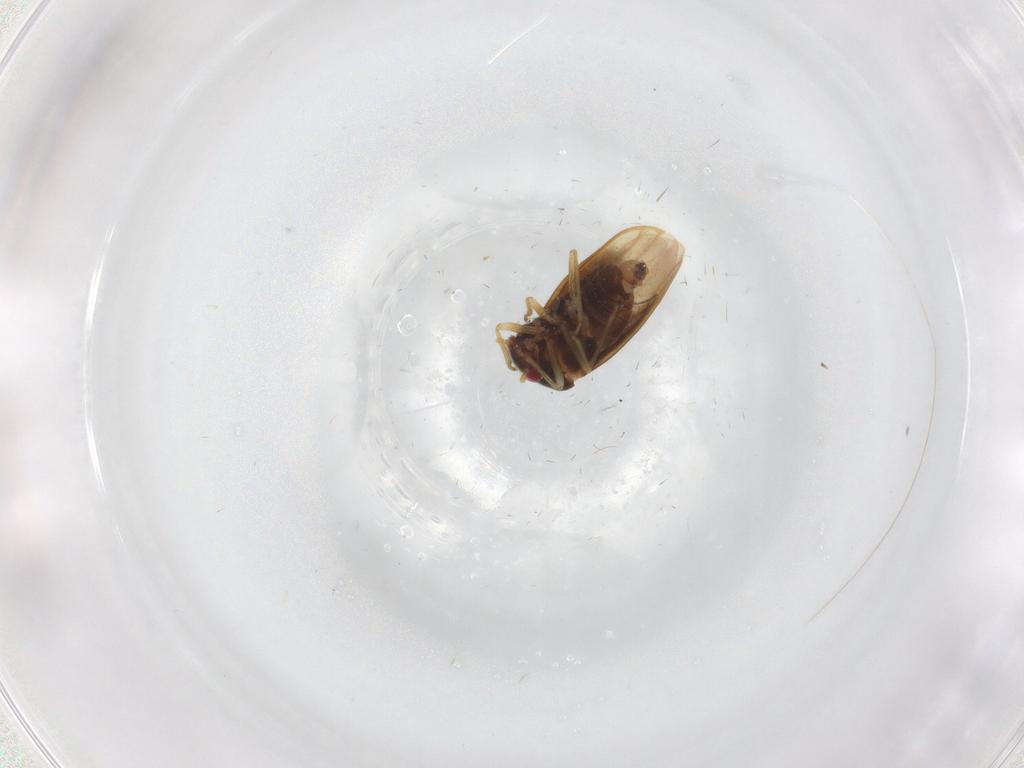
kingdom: Animalia
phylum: Arthropoda
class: Insecta
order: Hemiptera
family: Schizopteridae
